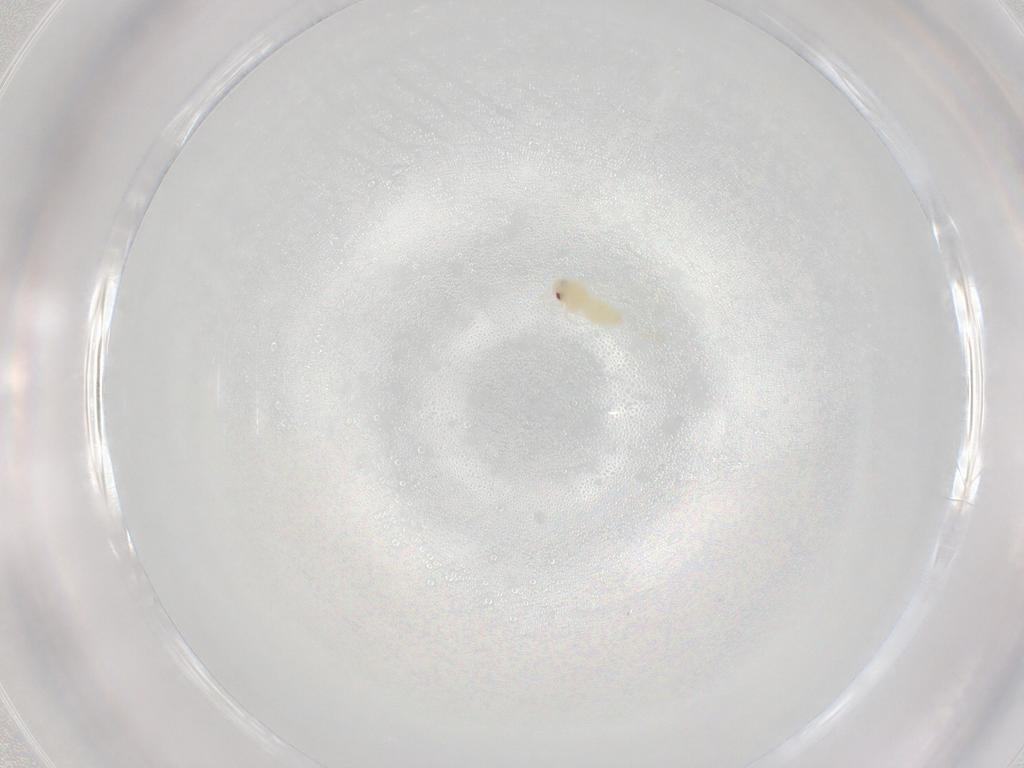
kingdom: Animalia
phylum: Arthropoda
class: Insecta
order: Hemiptera
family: Aleyrodidae
